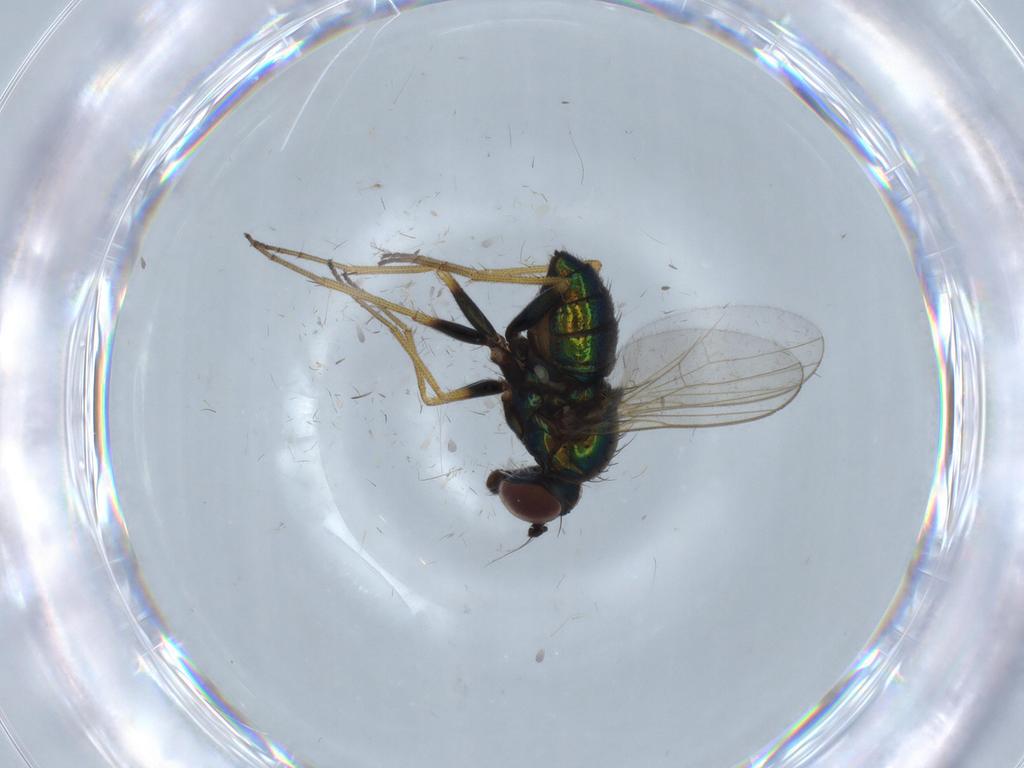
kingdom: Animalia
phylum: Arthropoda
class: Insecta
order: Diptera
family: Dolichopodidae
